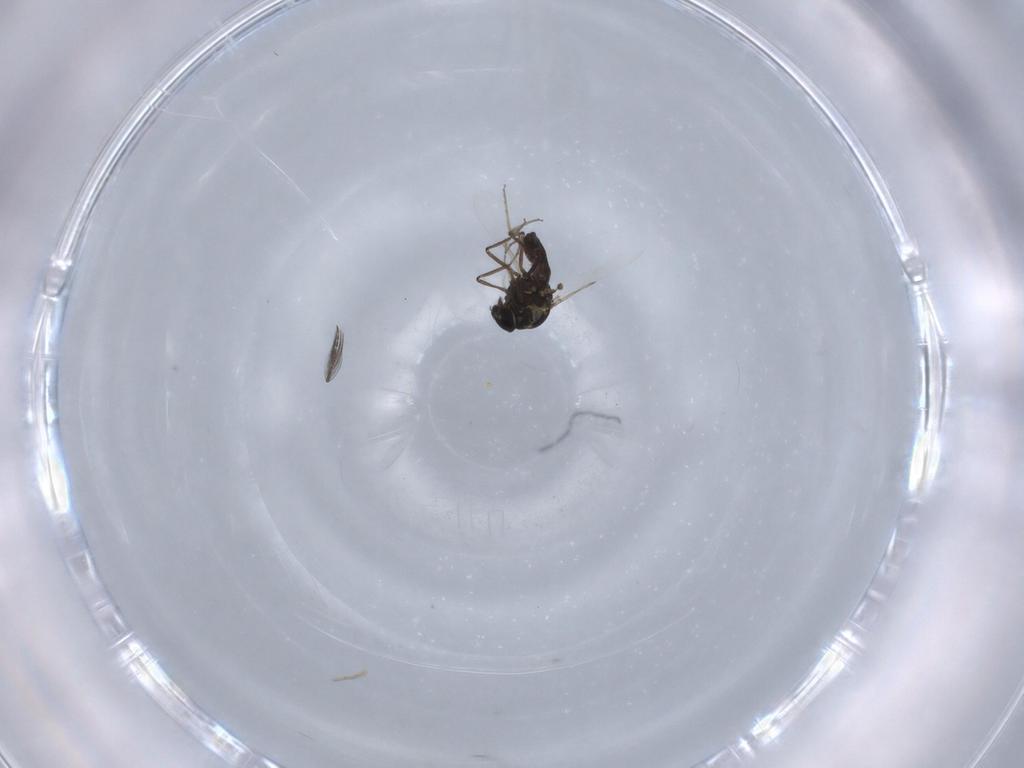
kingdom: Animalia
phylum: Arthropoda
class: Insecta
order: Diptera
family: Ceratopogonidae
